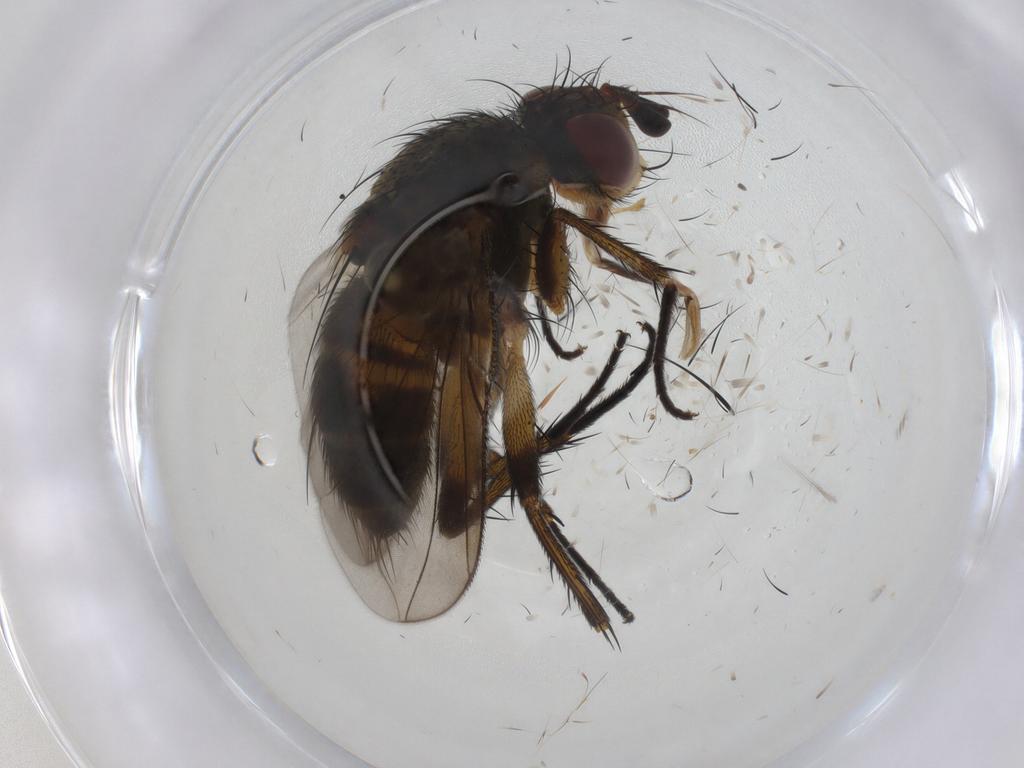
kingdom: Animalia
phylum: Arthropoda
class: Insecta
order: Diptera
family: Tachinidae
